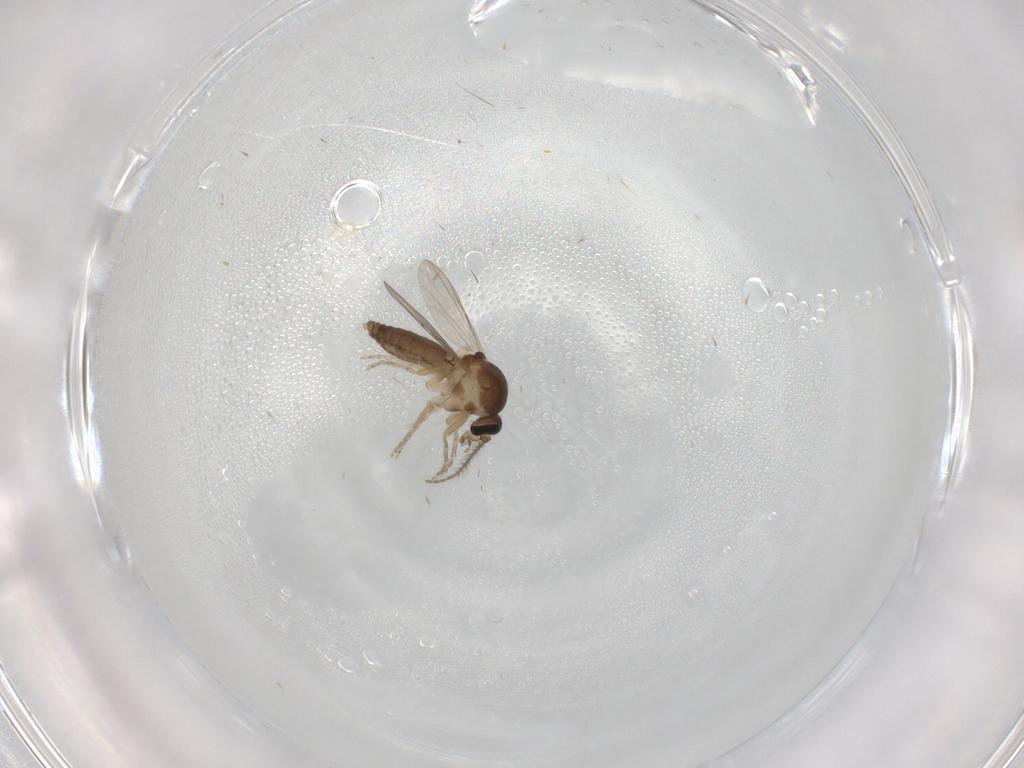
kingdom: Animalia
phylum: Arthropoda
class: Insecta
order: Diptera
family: Ceratopogonidae
